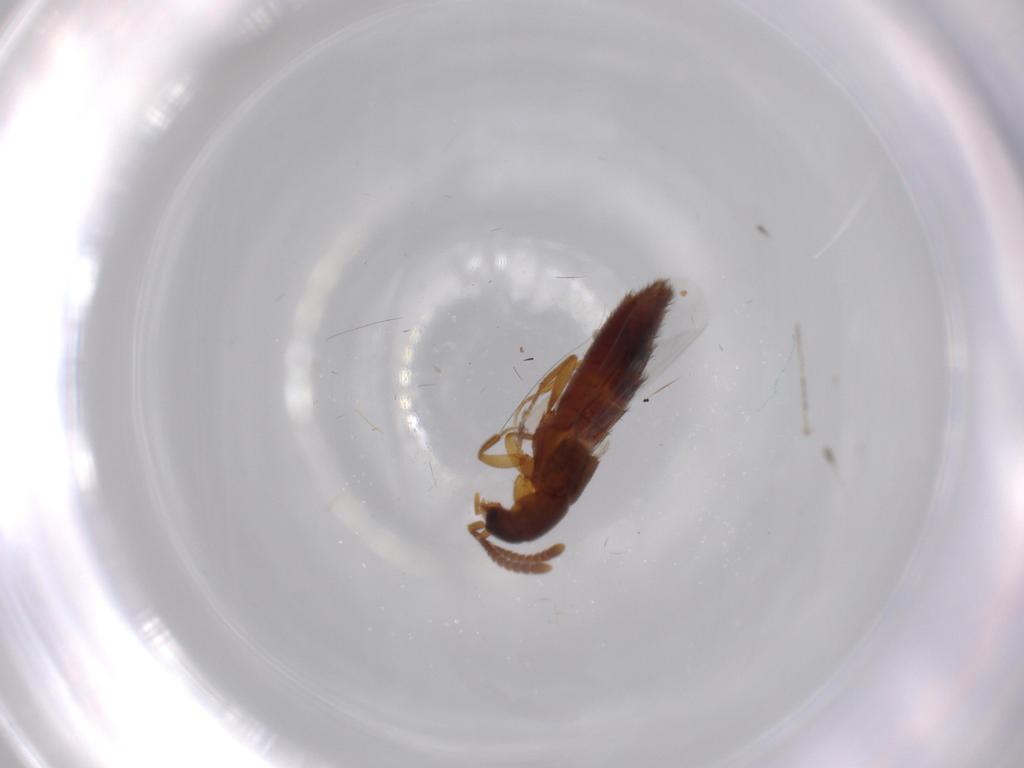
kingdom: Animalia
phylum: Arthropoda
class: Insecta
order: Coleoptera
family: Staphylinidae
